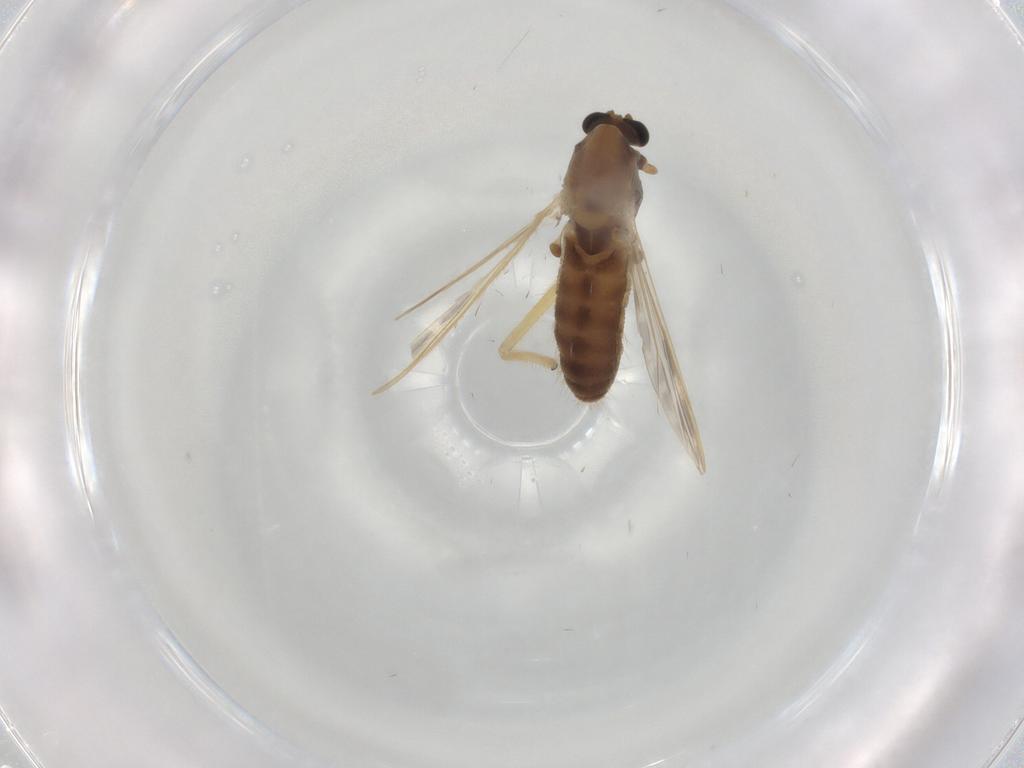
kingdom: Animalia
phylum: Arthropoda
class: Insecta
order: Diptera
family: Chironomidae
